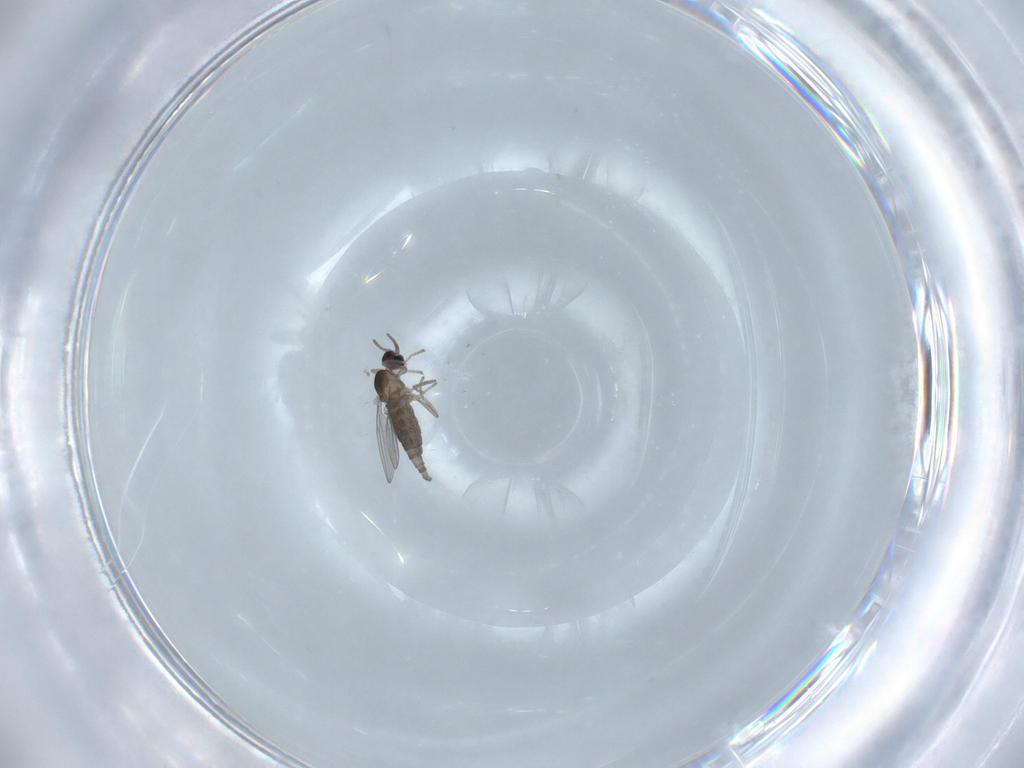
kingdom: Animalia
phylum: Arthropoda
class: Insecta
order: Diptera
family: Cecidomyiidae
